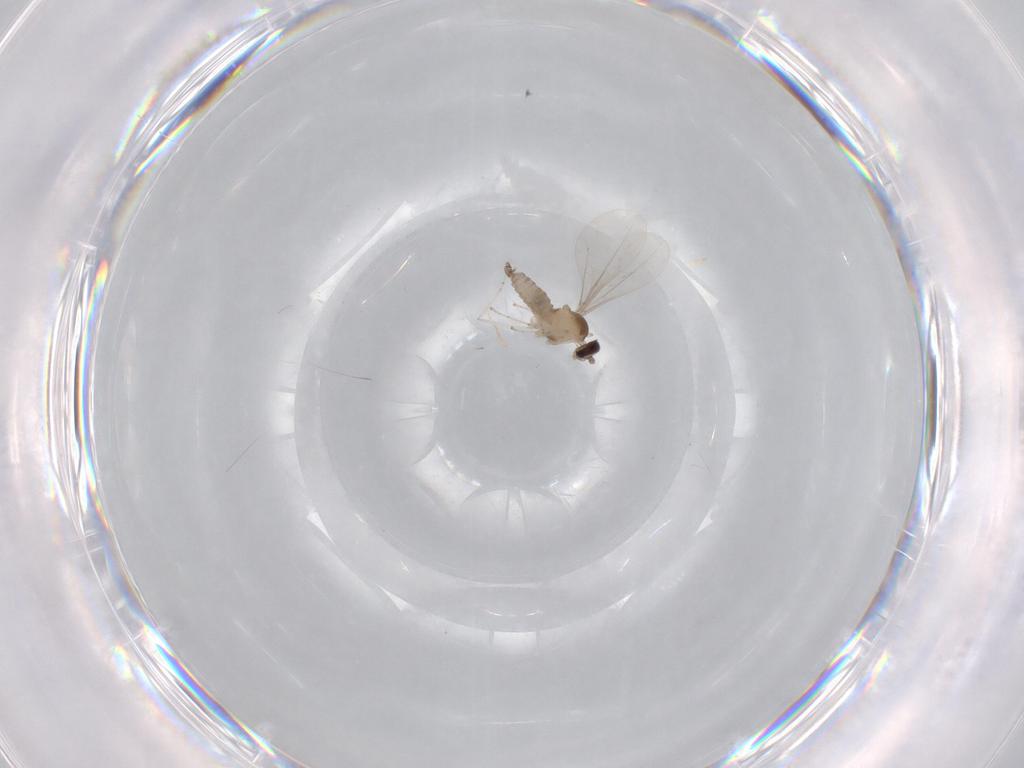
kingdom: Animalia
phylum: Arthropoda
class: Insecta
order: Diptera
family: Cecidomyiidae
